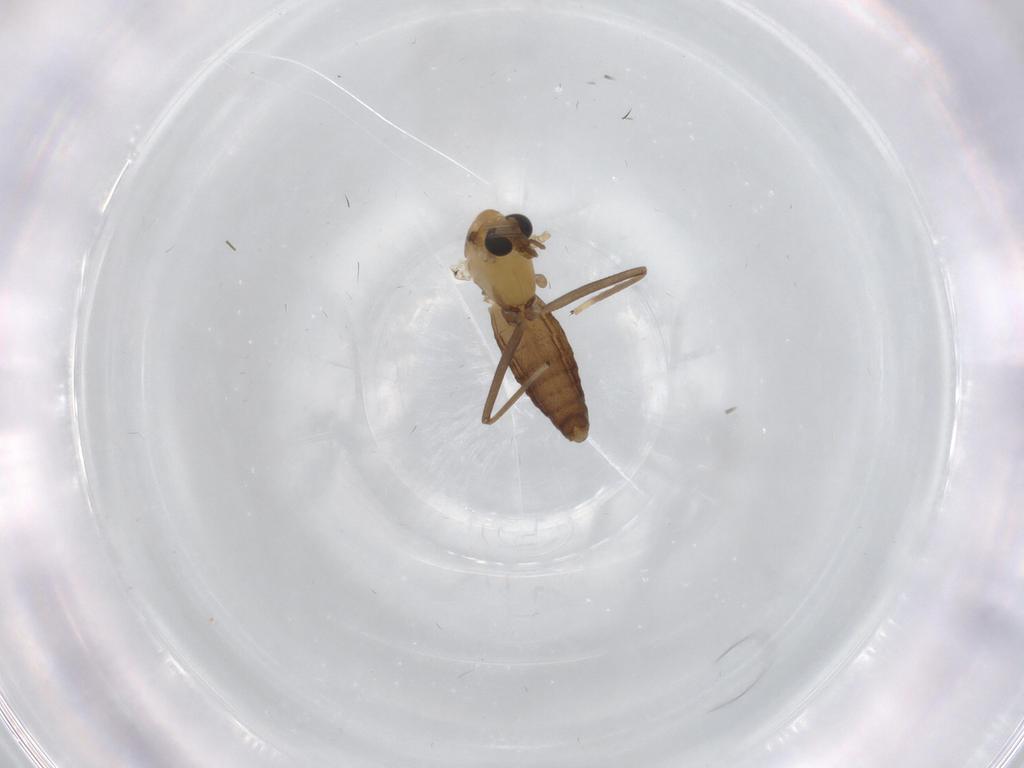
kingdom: Animalia
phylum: Arthropoda
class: Insecta
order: Diptera
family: Chironomidae
